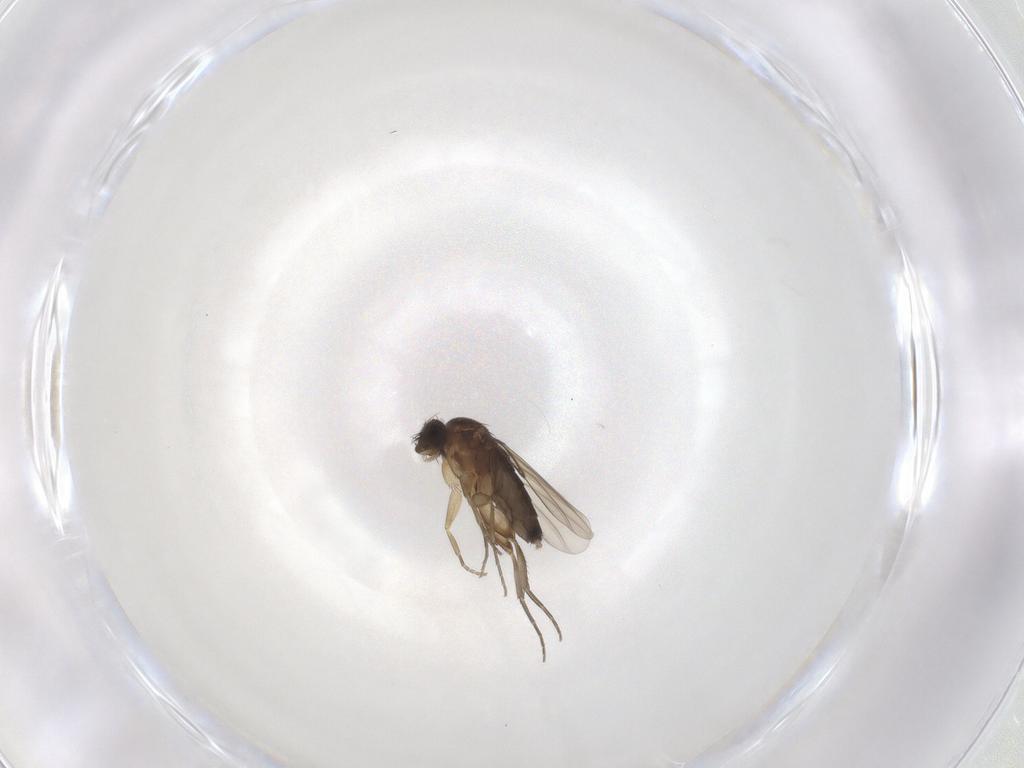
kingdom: Animalia
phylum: Arthropoda
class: Insecta
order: Diptera
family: Phoridae
